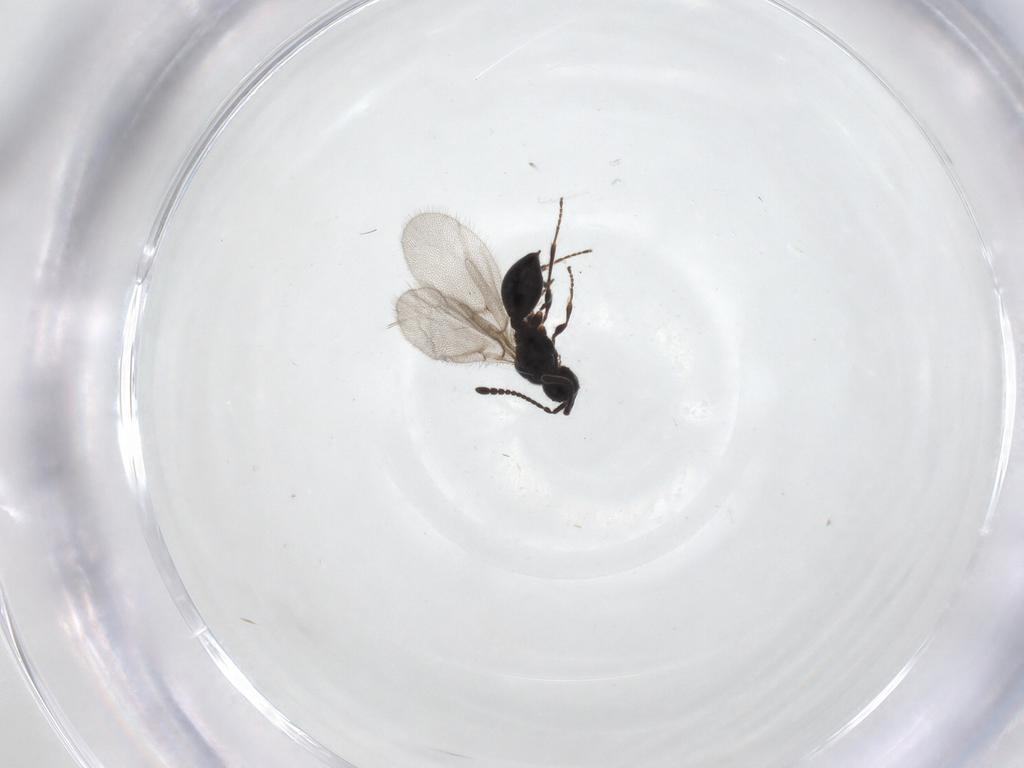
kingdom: Animalia
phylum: Arthropoda
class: Insecta
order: Hymenoptera
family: Diapriidae
